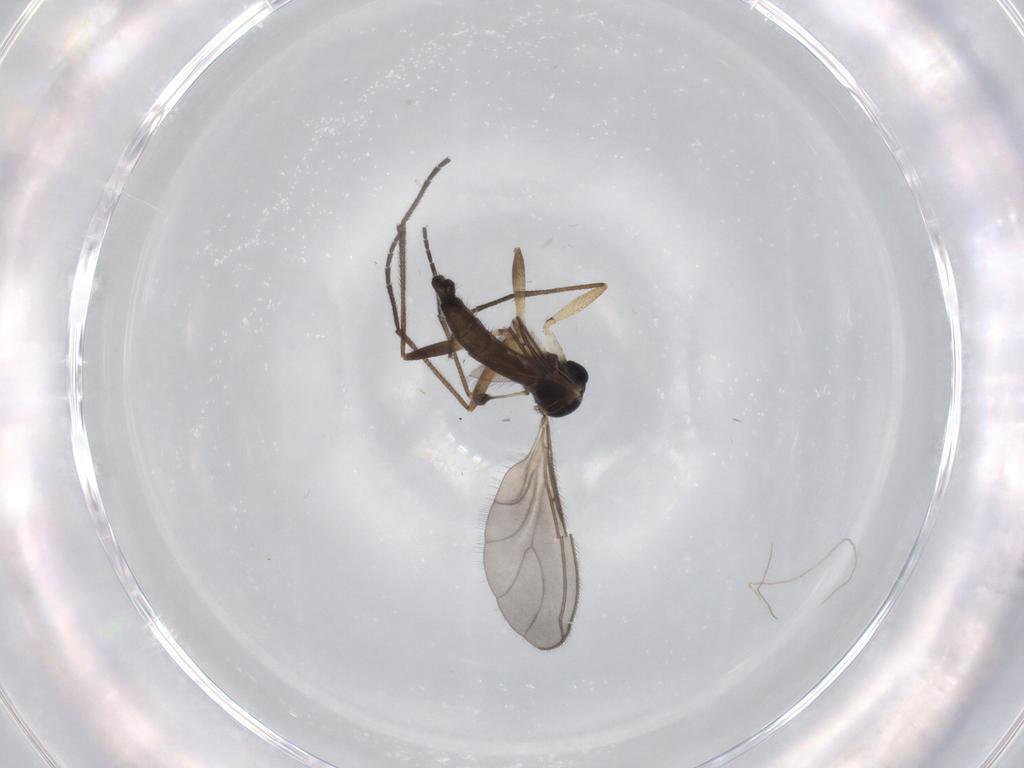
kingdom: Animalia
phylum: Arthropoda
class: Insecta
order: Diptera
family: Sciaridae
